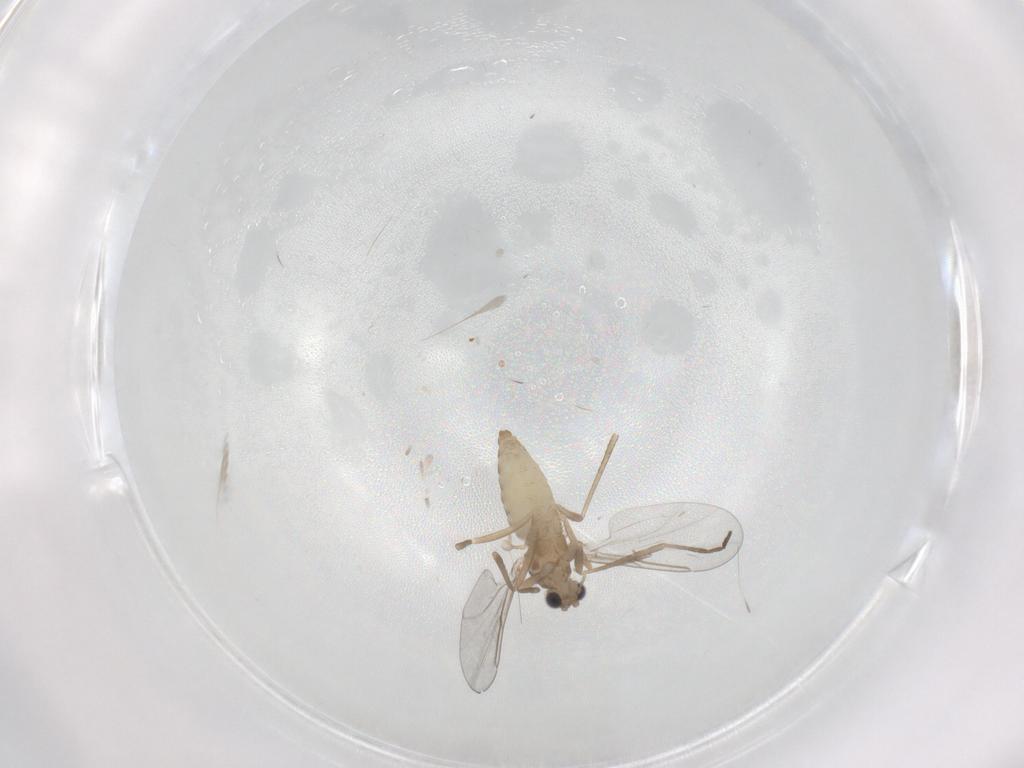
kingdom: Animalia
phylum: Arthropoda
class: Insecta
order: Diptera
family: Cecidomyiidae
